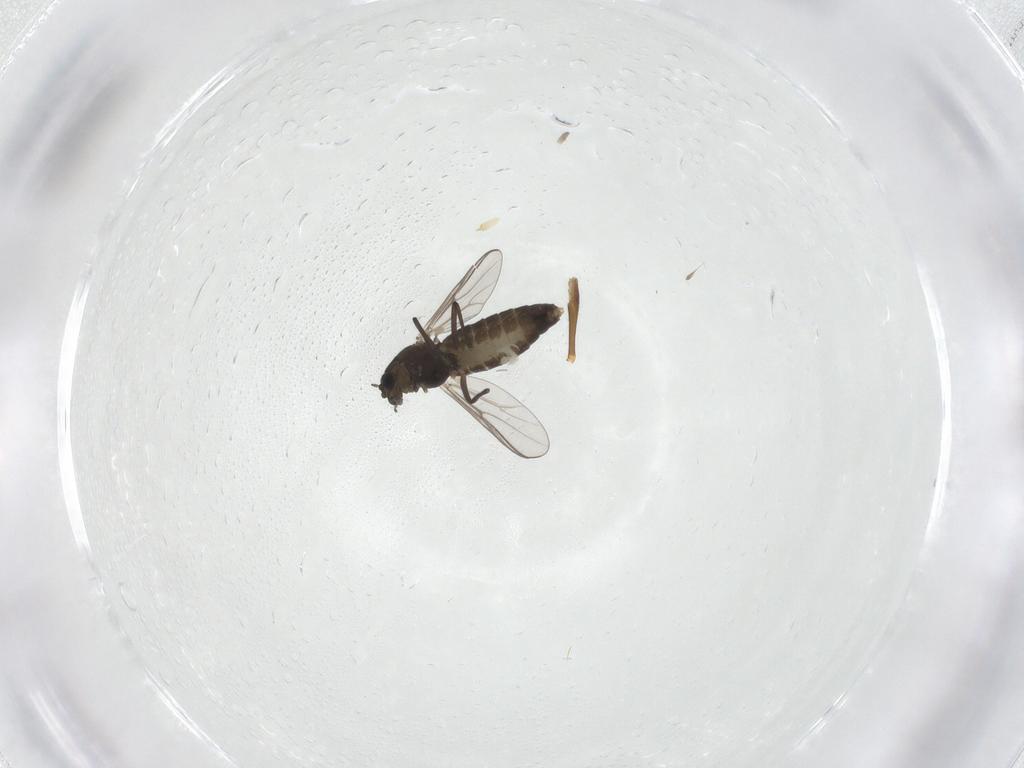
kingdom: Animalia
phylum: Arthropoda
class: Insecta
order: Diptera
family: Chironomidae
